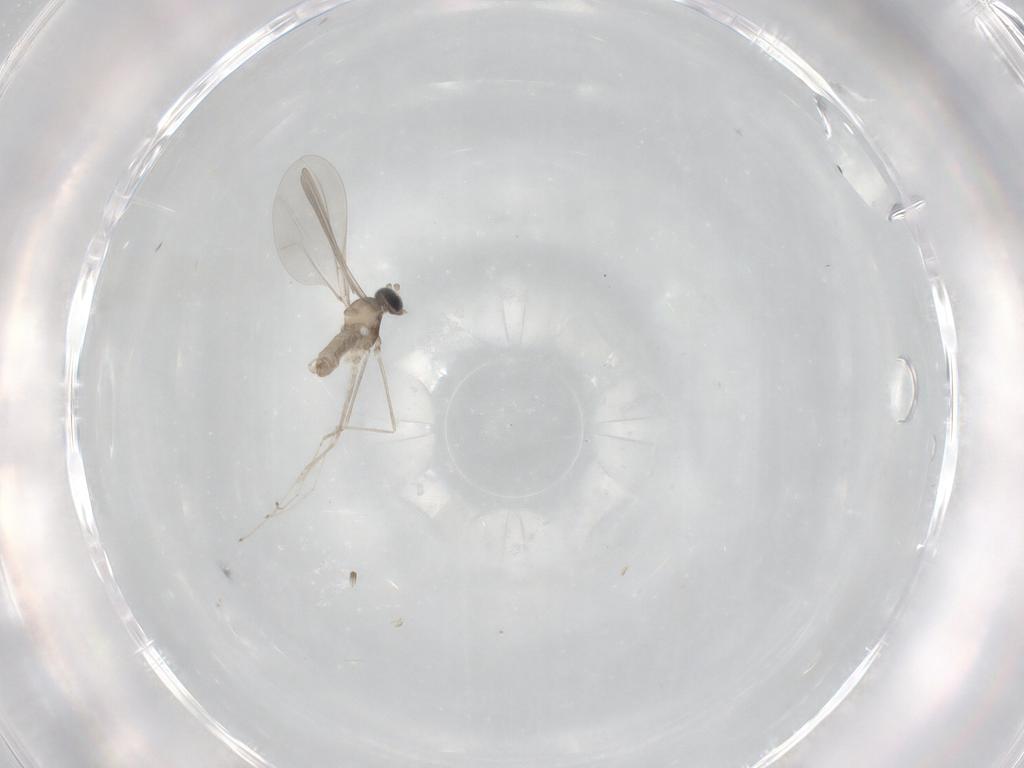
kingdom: Animalia
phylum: Arthropoda
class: Insecta
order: Diptera
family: Cecidomyiidae
